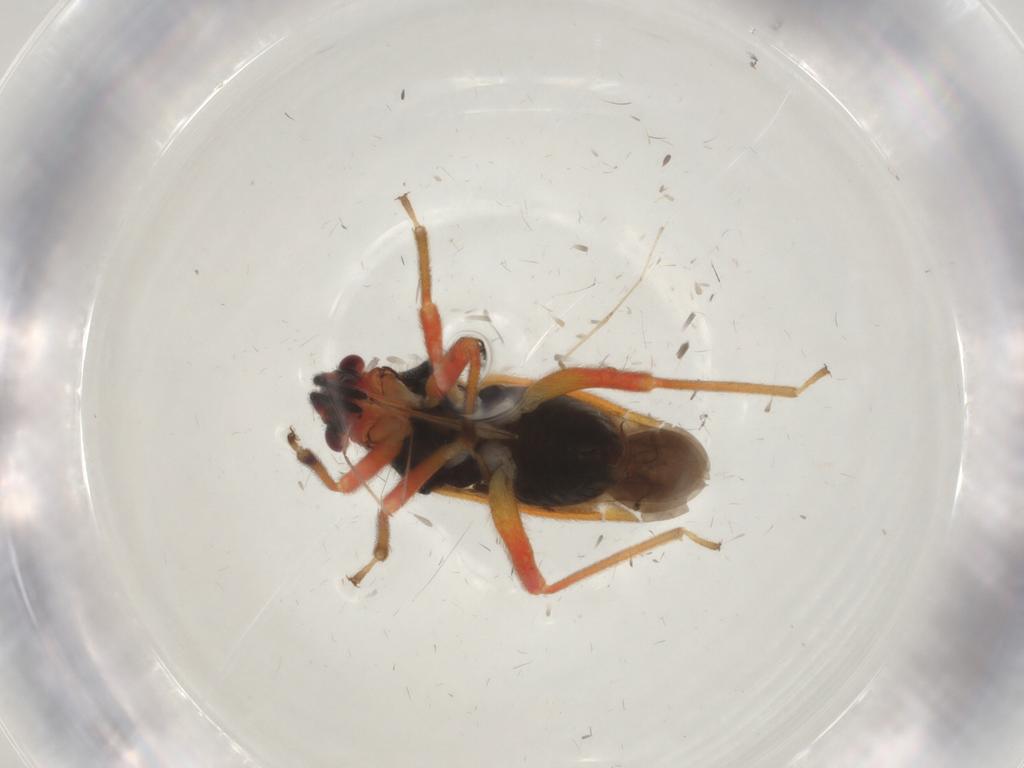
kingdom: Animalia
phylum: Arthropoda
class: Insecta
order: Hemiptera
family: Miridae
